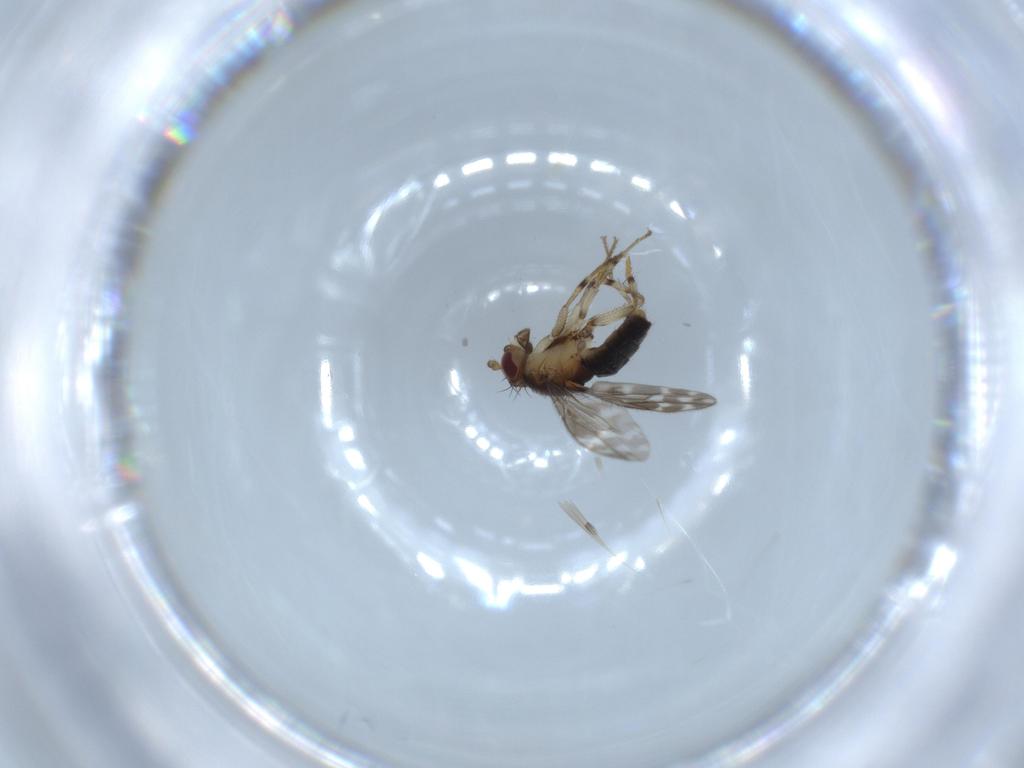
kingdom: Animalia
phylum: Arthropoda
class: Insecta
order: Diptera
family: Sphaeroceridae
